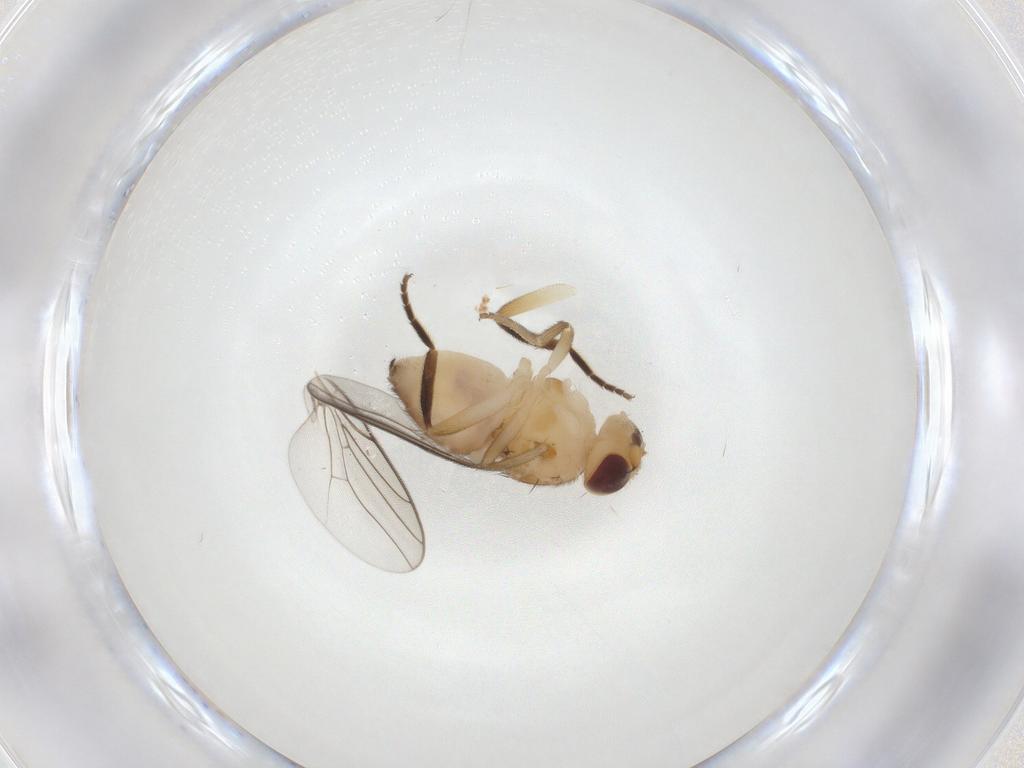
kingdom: Animalia
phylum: Arthropoda
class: Insecta
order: Diptera
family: Chloropidae
